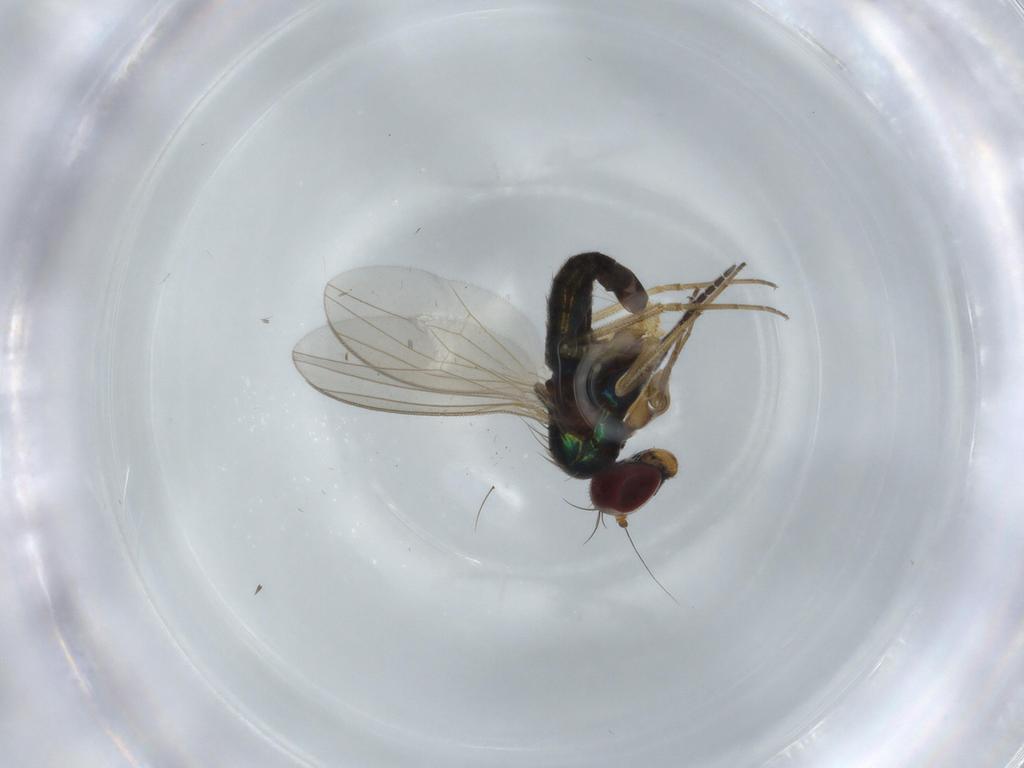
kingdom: Animalia
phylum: Arthropoda
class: Insecta
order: Diptera
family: Dolichopodidae
